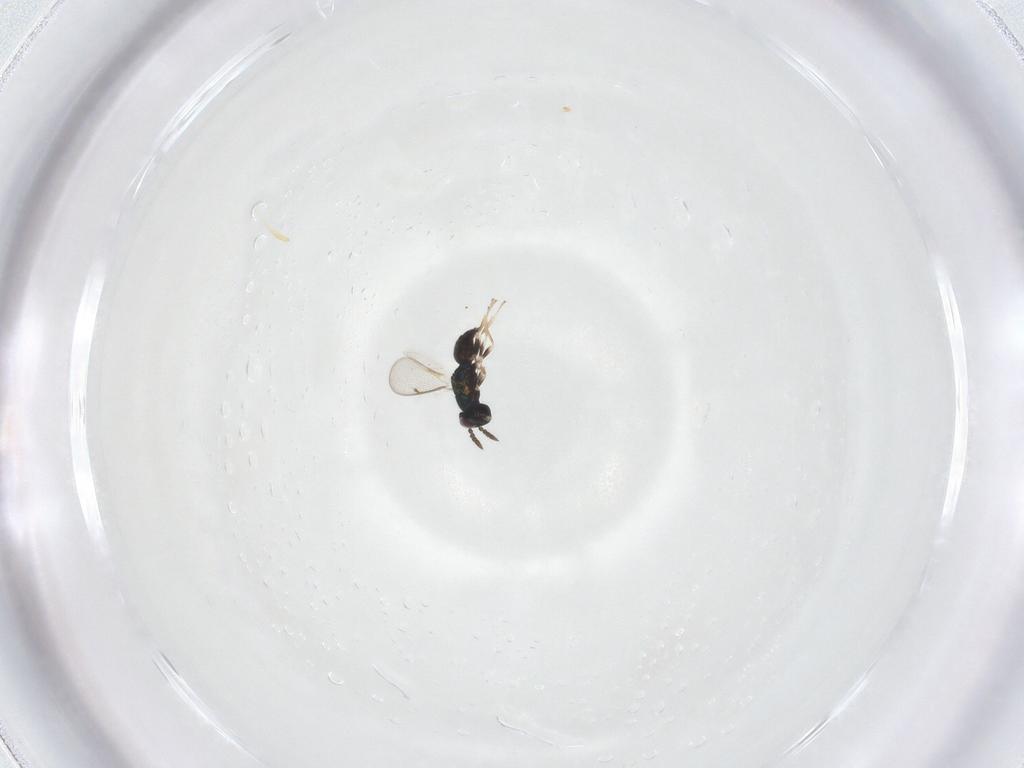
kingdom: Animalia
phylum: Arthropoda
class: Insecta
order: Hymenoptera
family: Eulophidae
